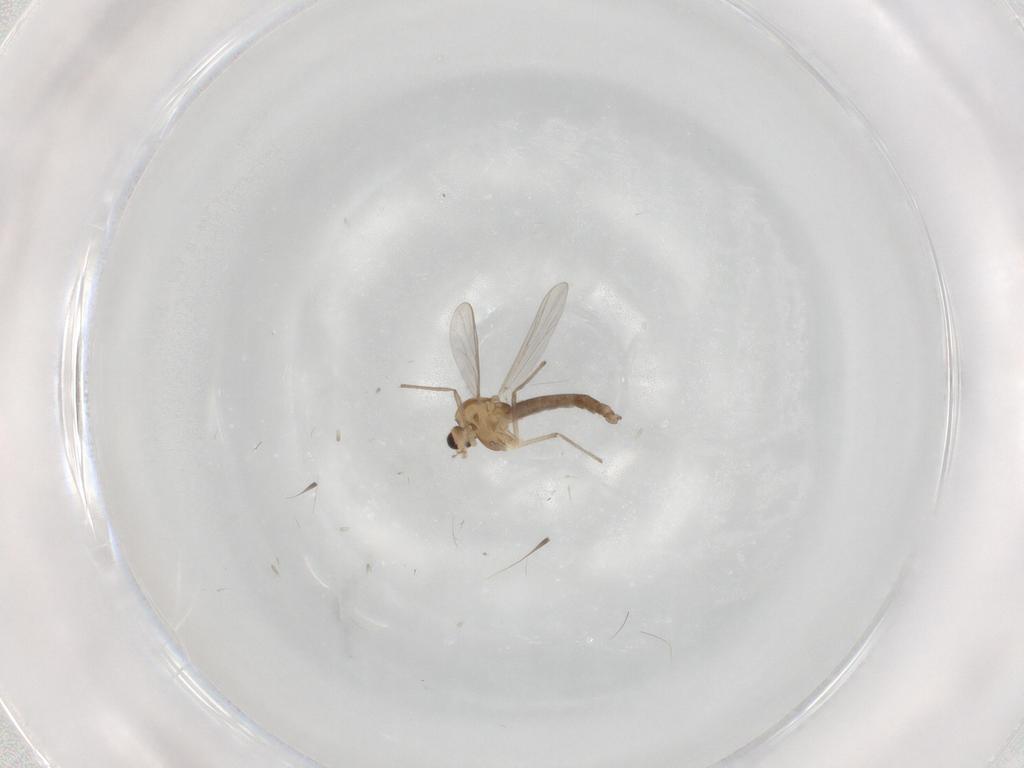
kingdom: Animalia
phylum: Arthropoda
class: Insecta
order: Diptera
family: Chironomidae
